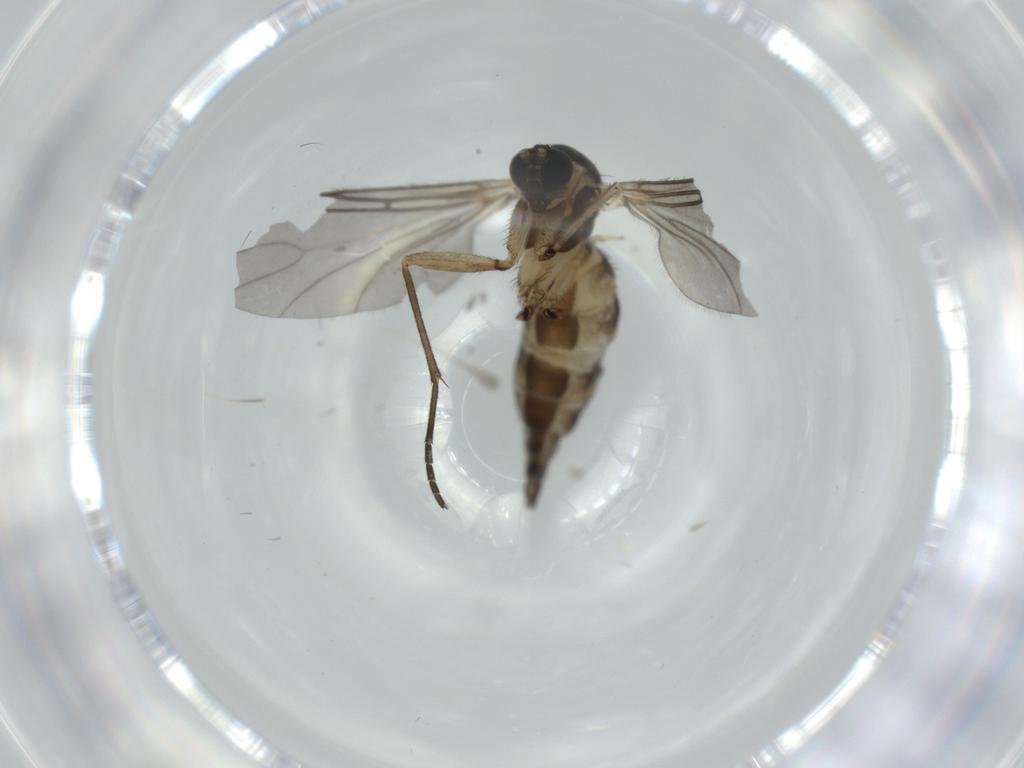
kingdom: Animalia
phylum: Arthropoda
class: Insecta
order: Diptera
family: Sciaridae
